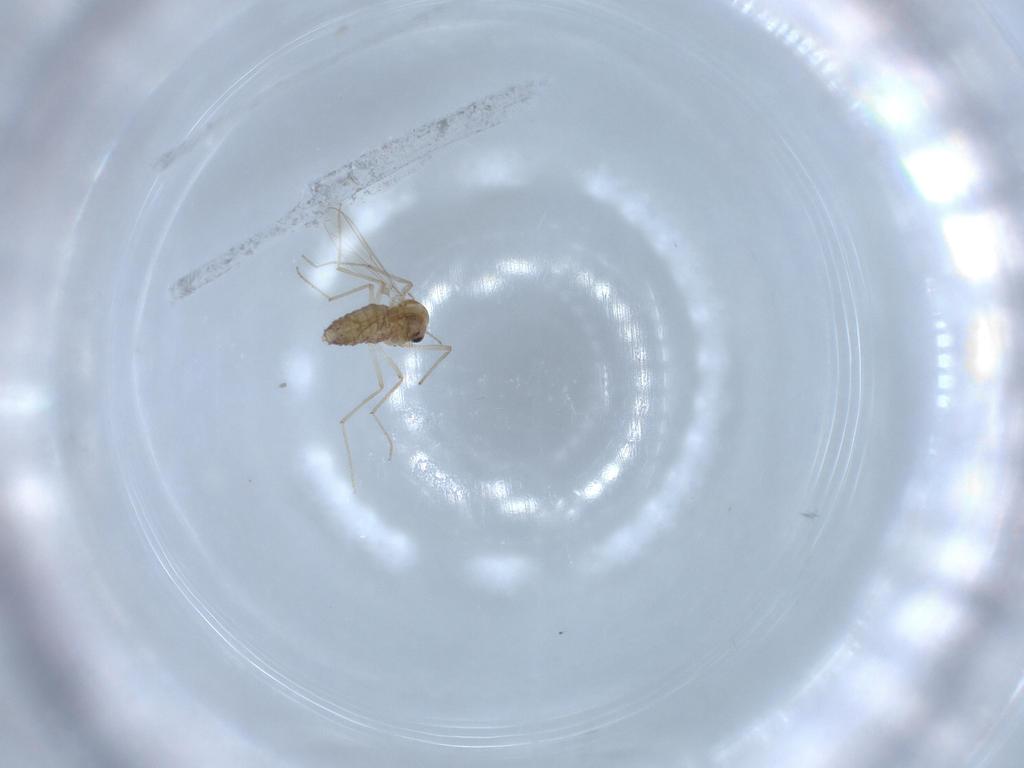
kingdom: Animalia
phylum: Arthropoda
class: Insecta
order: Diptera
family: Chironomidae
